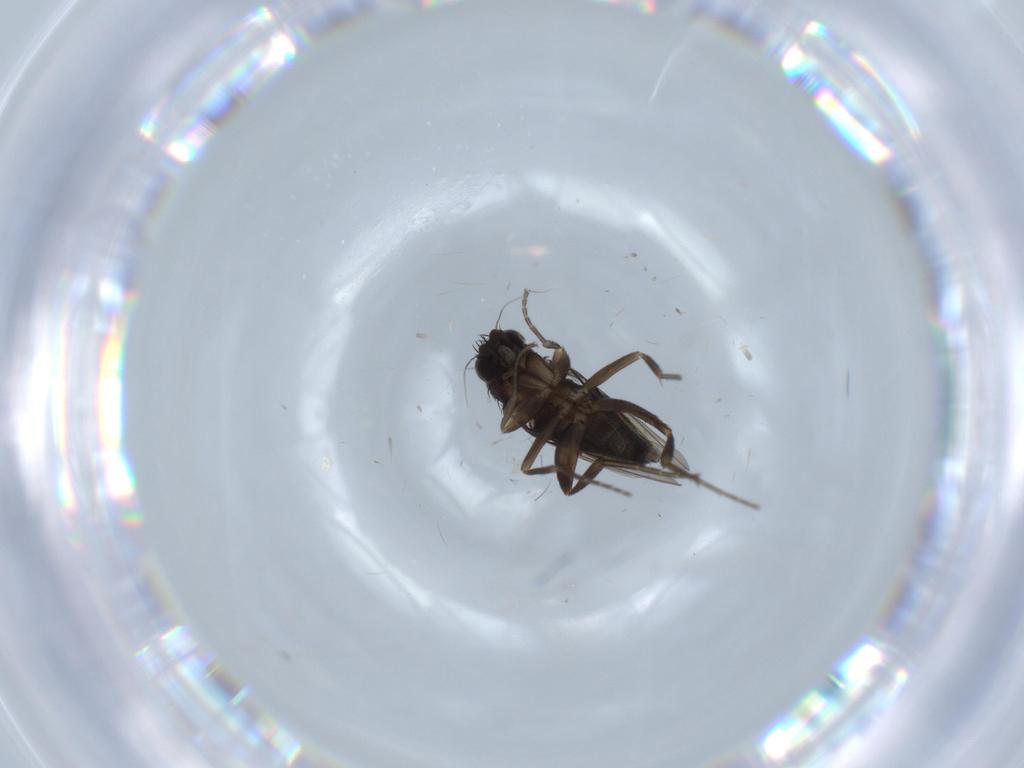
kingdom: Animalia
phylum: Arthropoda
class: Insecta
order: Diptera
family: Phoridae
